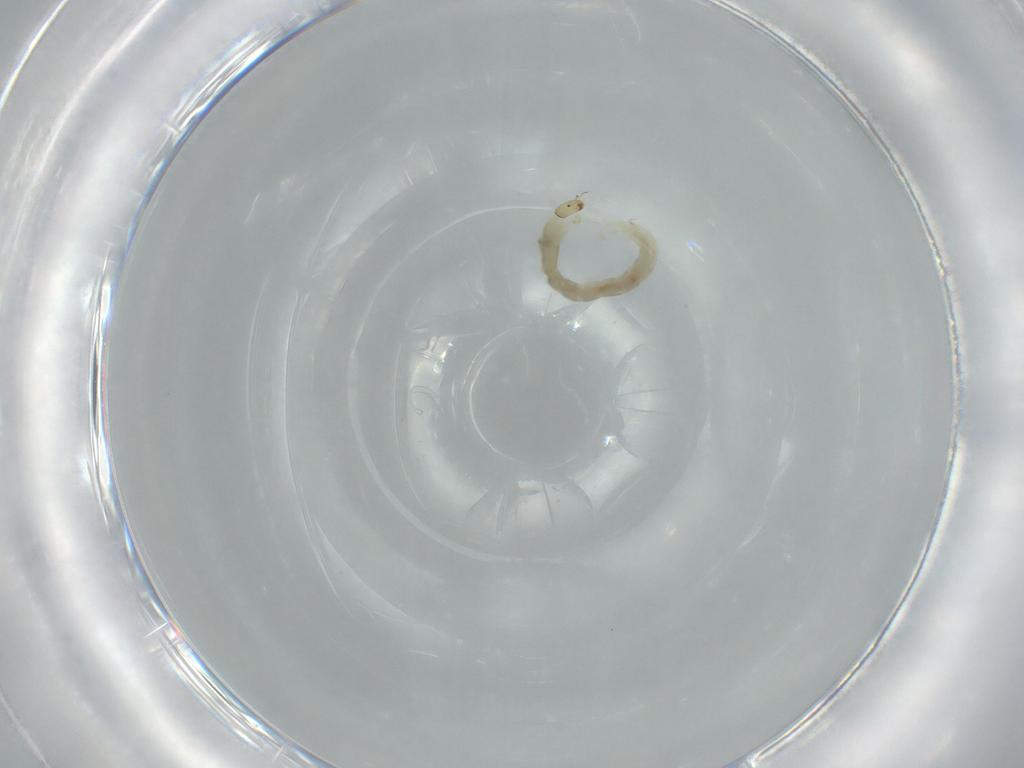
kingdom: Animalia
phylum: Arthropoda
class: Insecta
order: Diptera
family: Chironomidae
